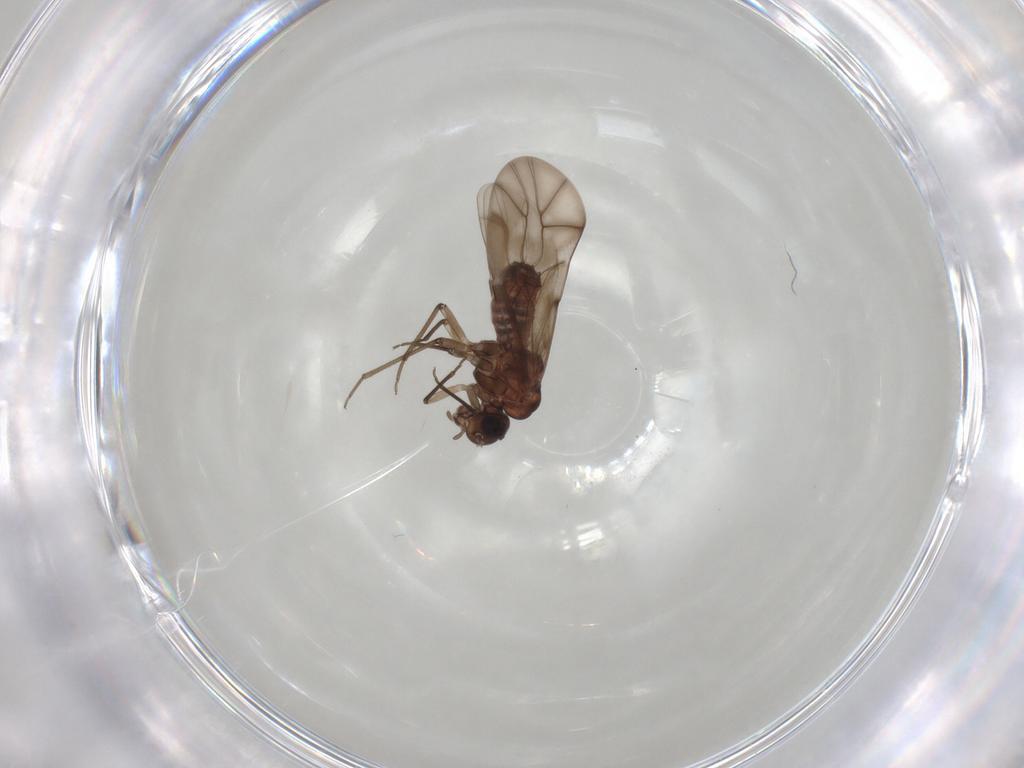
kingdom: Animalia
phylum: Arthropoda
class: Insecta
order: Psocodea
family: Peripsocidae
